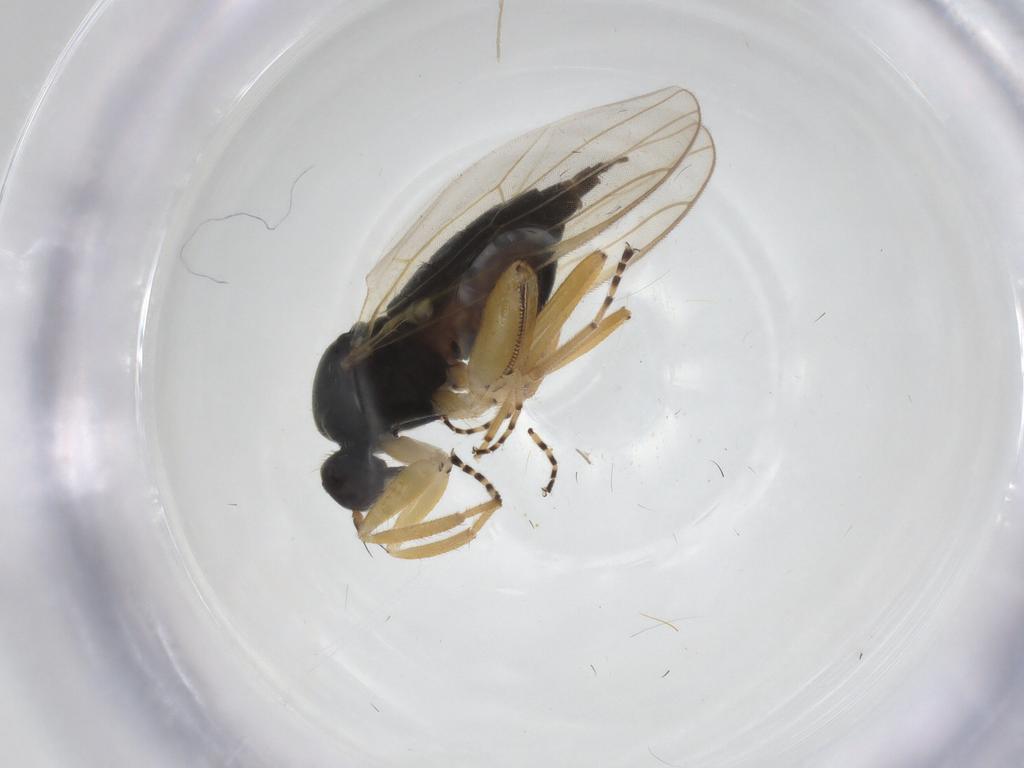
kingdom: Animalia
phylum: Arthropoda
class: Insecta
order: Diptera
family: Hybotidae
